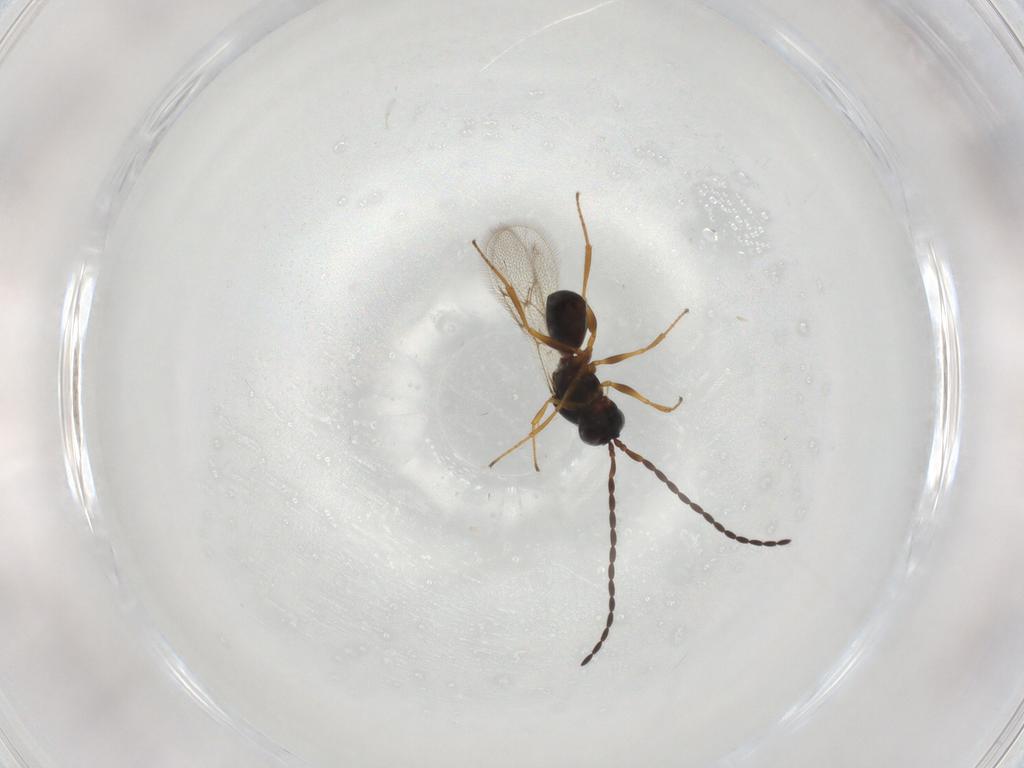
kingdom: Animalia
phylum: Arthropoda
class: Insecta
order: Hymenoptera
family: Figitidae
